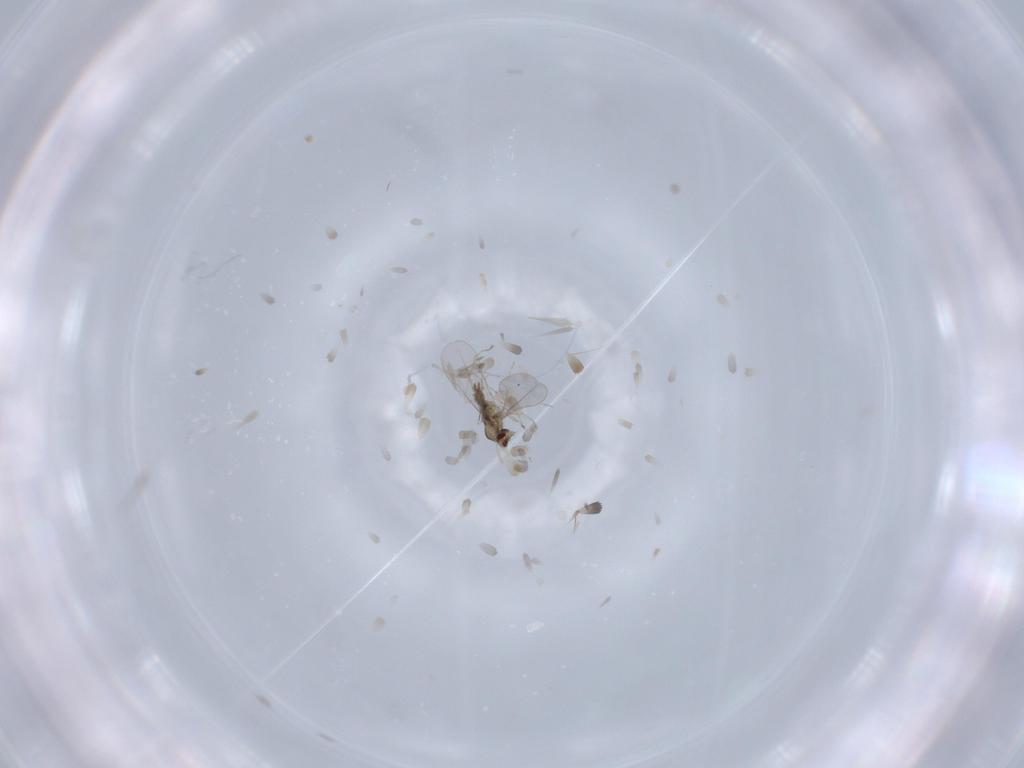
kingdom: Animalia
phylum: Arthropoda
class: Insecta
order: Diptera
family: Cecidomyiidae
